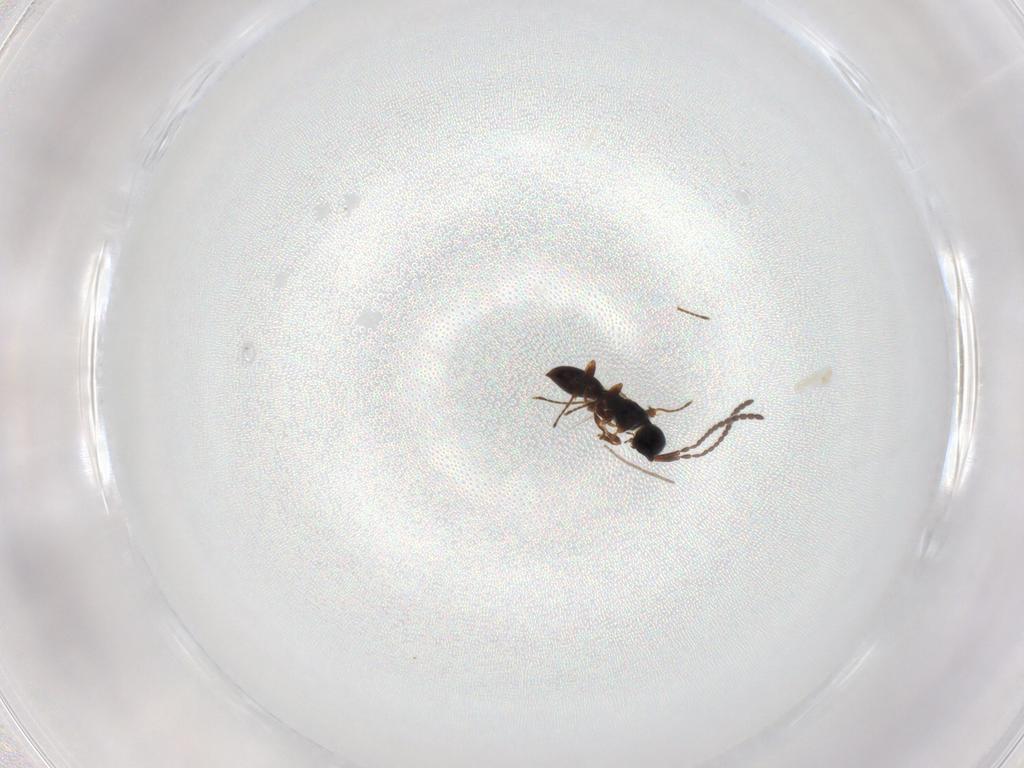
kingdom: Animalia
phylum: Arthropoda
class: Insecta
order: Hymenoptera
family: Diapriidae
